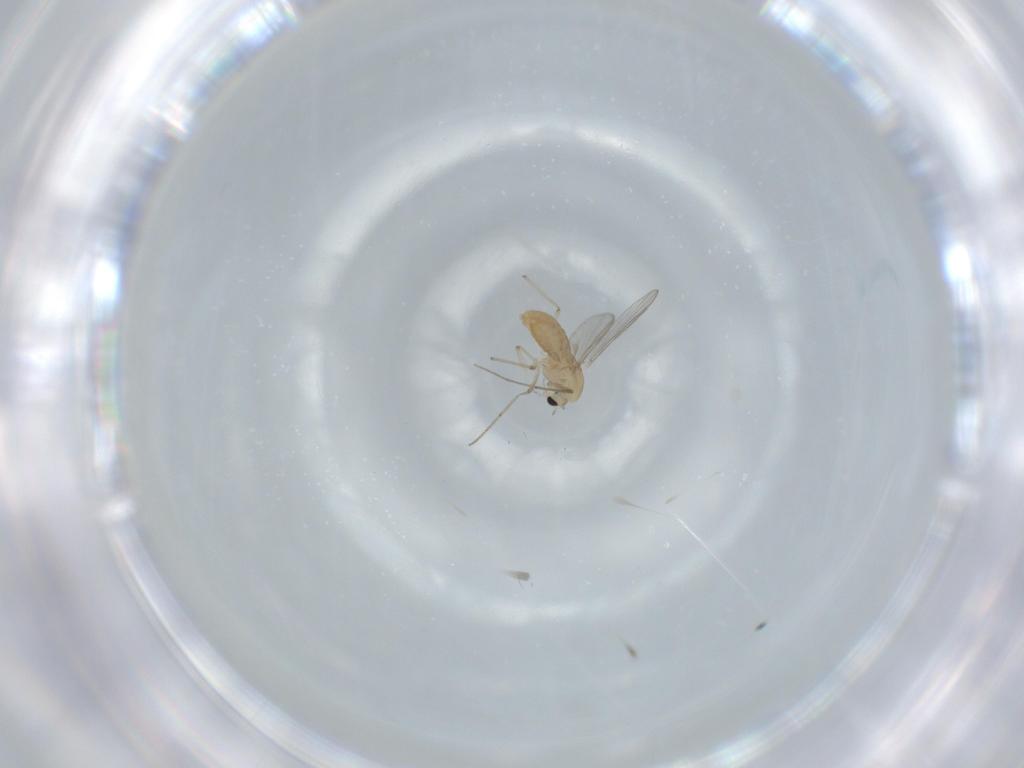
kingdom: Animalia
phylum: Arthropoda
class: Insecta
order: Diptera
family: Chironomidae
